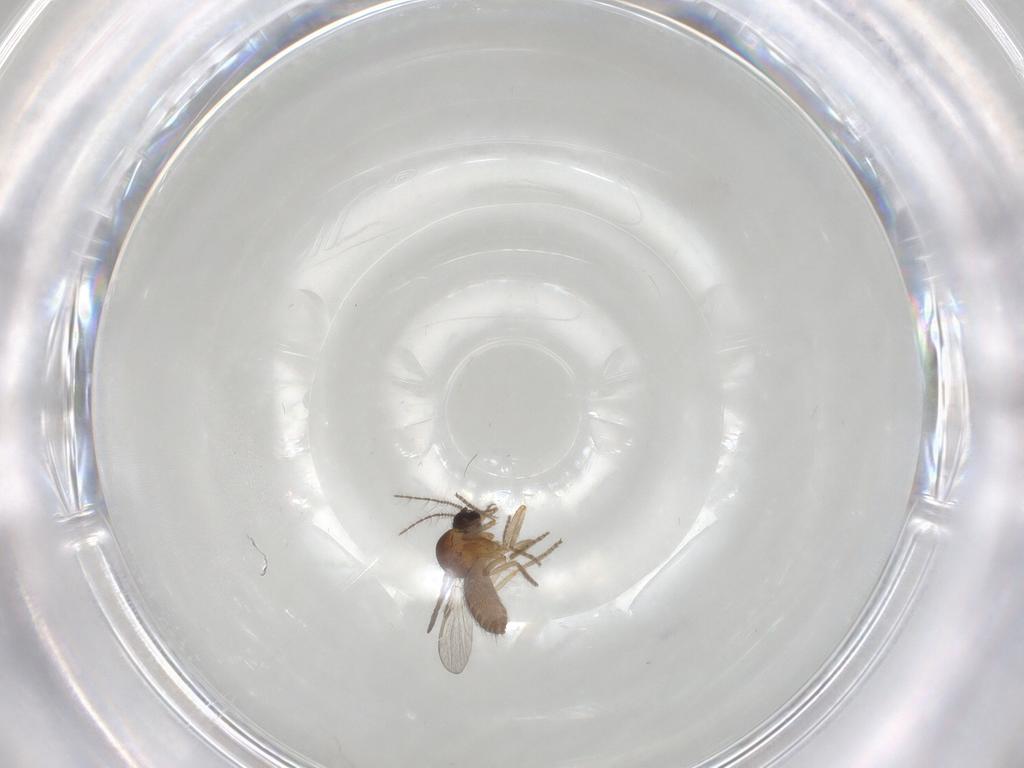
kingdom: Animalia
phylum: Arthropoda
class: Insecta
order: Diptera
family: Ceratopogonidae
